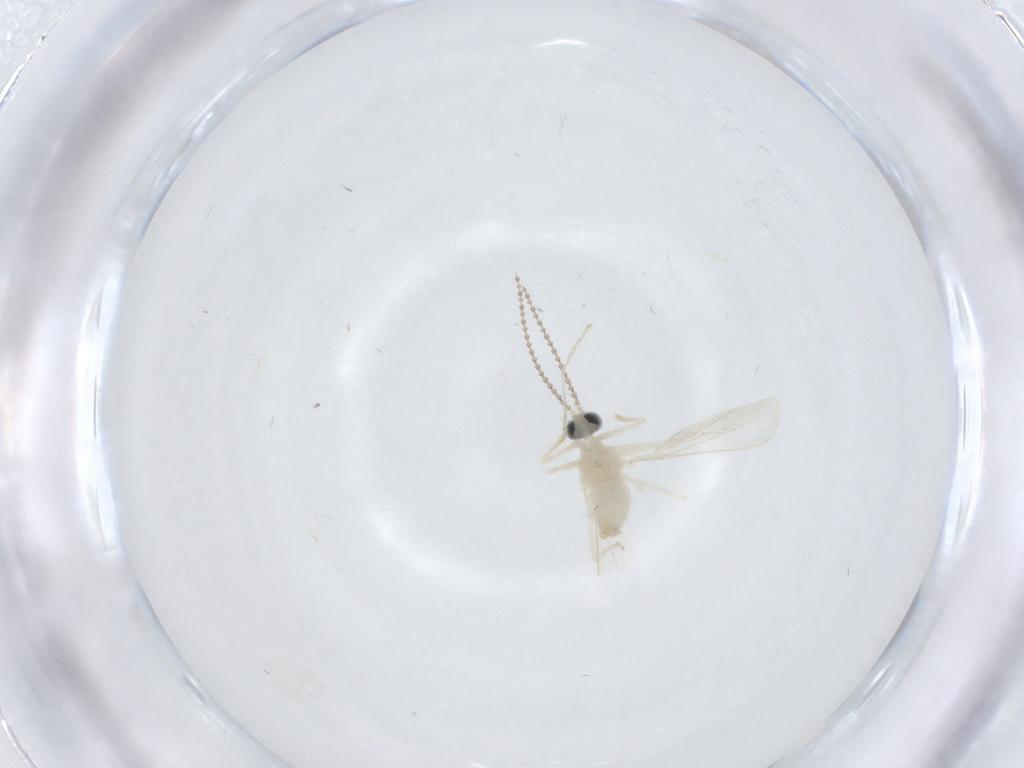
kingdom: Animalia
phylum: Arthropoda
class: Insecta
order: Diptera
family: Cecidomyiidae
